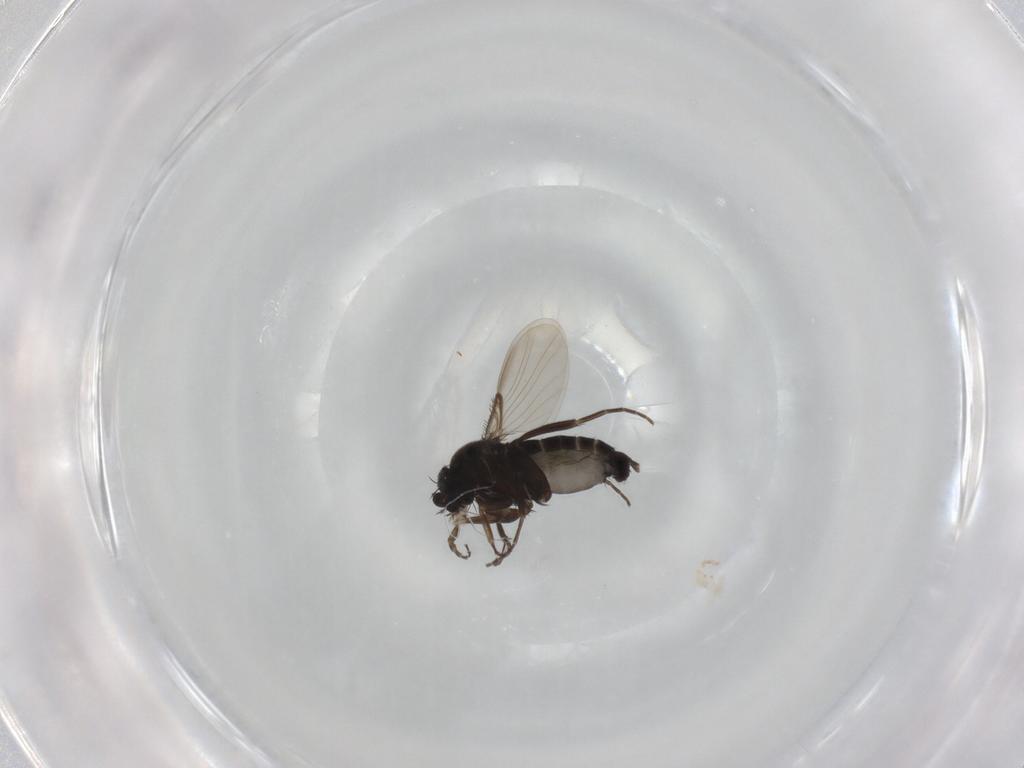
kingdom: Animalia
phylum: Arthropoda
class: Insecta
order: Diptera
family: Phoridae
